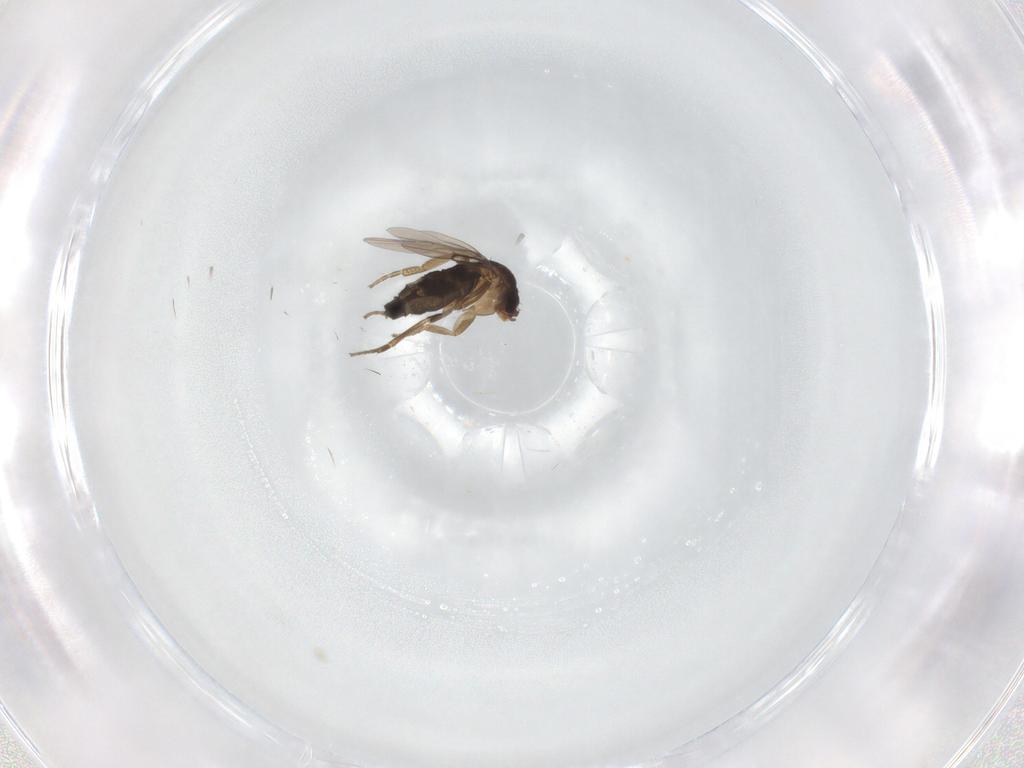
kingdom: Animalia
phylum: Arthropoda
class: Insecta
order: Diptera
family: Phoridae
